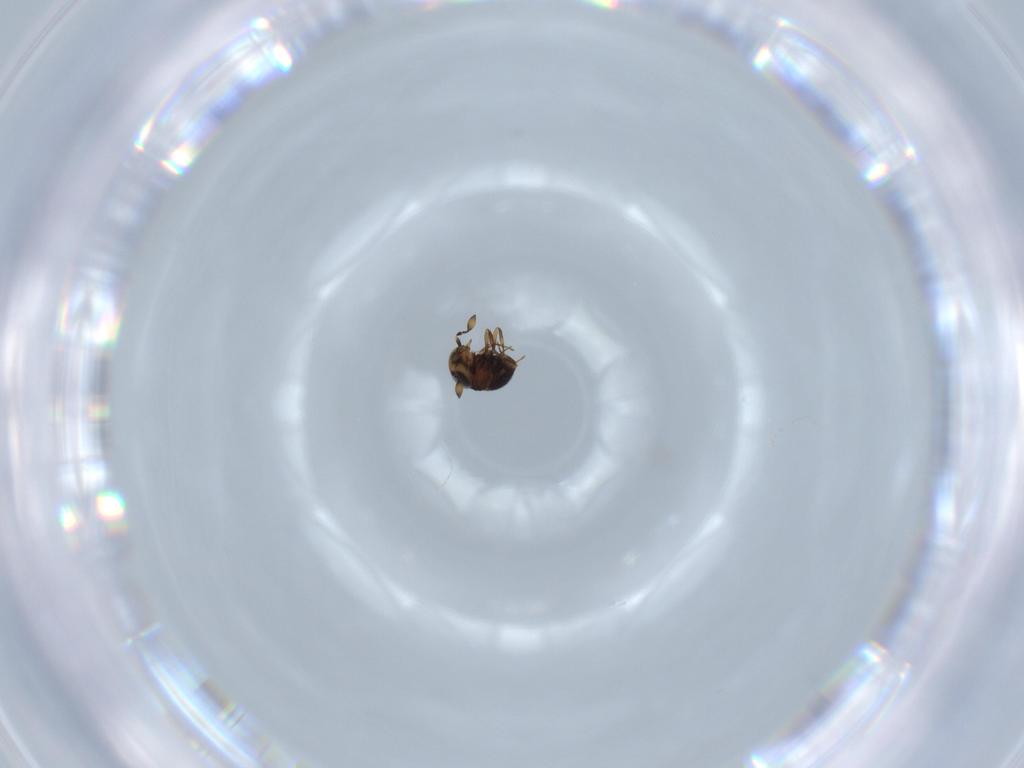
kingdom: Animalia
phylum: Arthropoda
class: Insecta
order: Hymenoptera
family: Scelionidae
